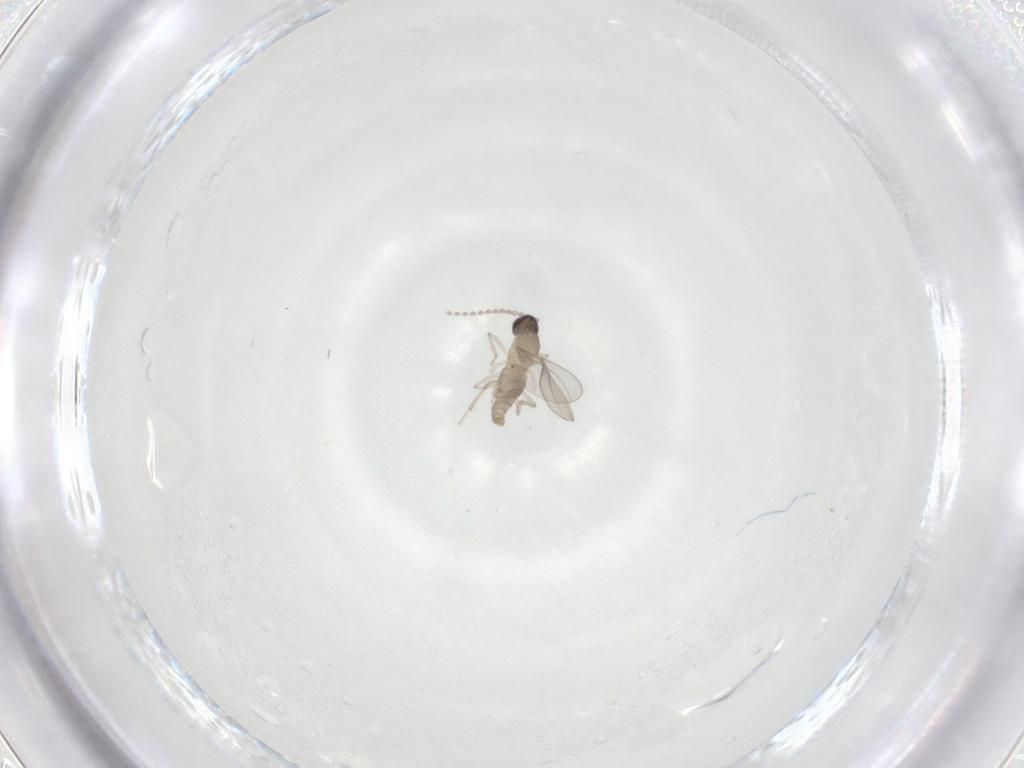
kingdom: Animalia
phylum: Arthropoda
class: Insecta
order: Diptera
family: Cecidomyiidae
